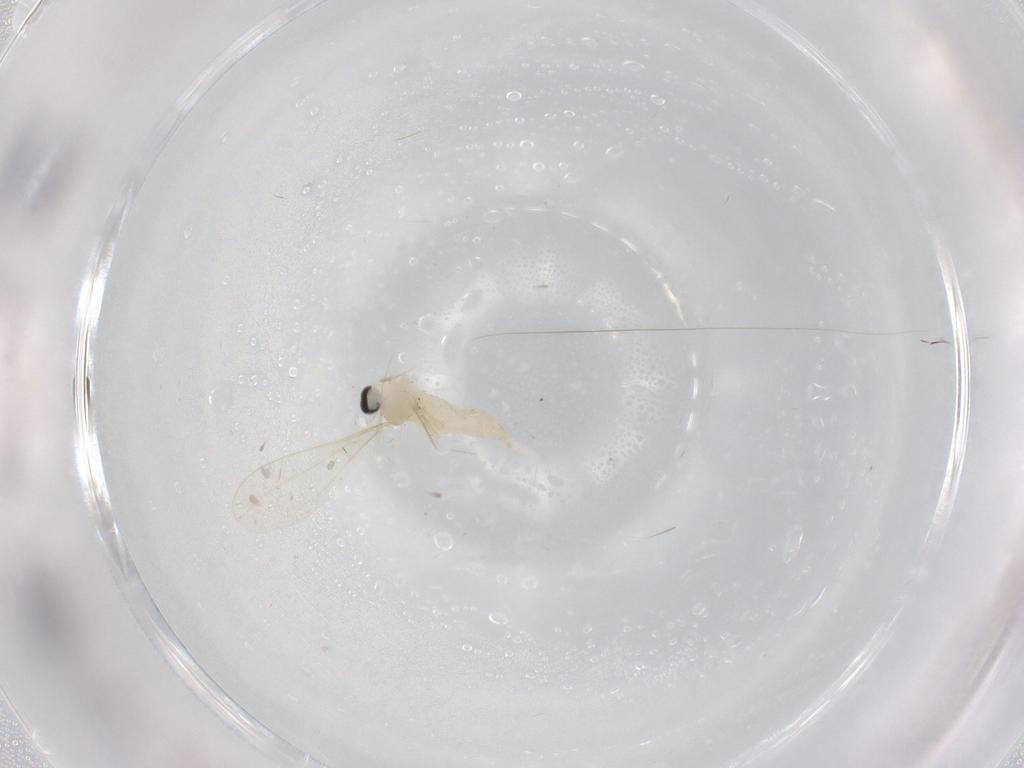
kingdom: Animalia
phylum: Arthropoda
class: Insecta
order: Diptera
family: Cecidomyiidae
